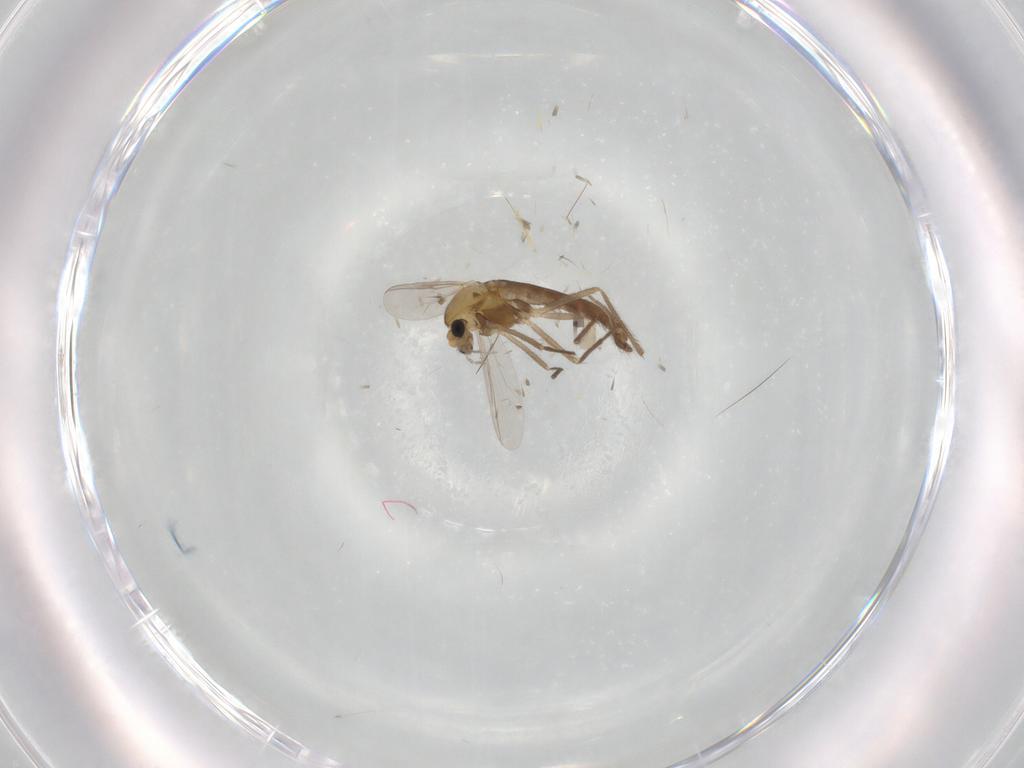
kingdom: Animalia
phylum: Arthropoda
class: Insecta
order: Diptera
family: Chironomidae
